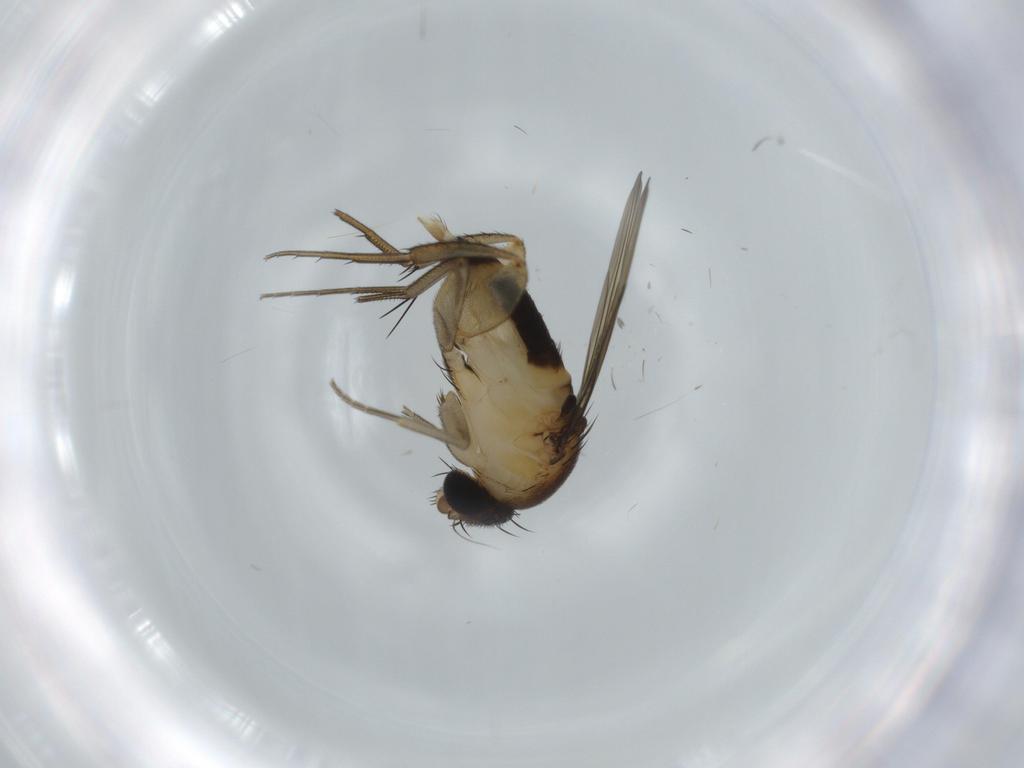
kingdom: Animalia
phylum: Arthropoda
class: Insecta
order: Diptera
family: Phoridae
